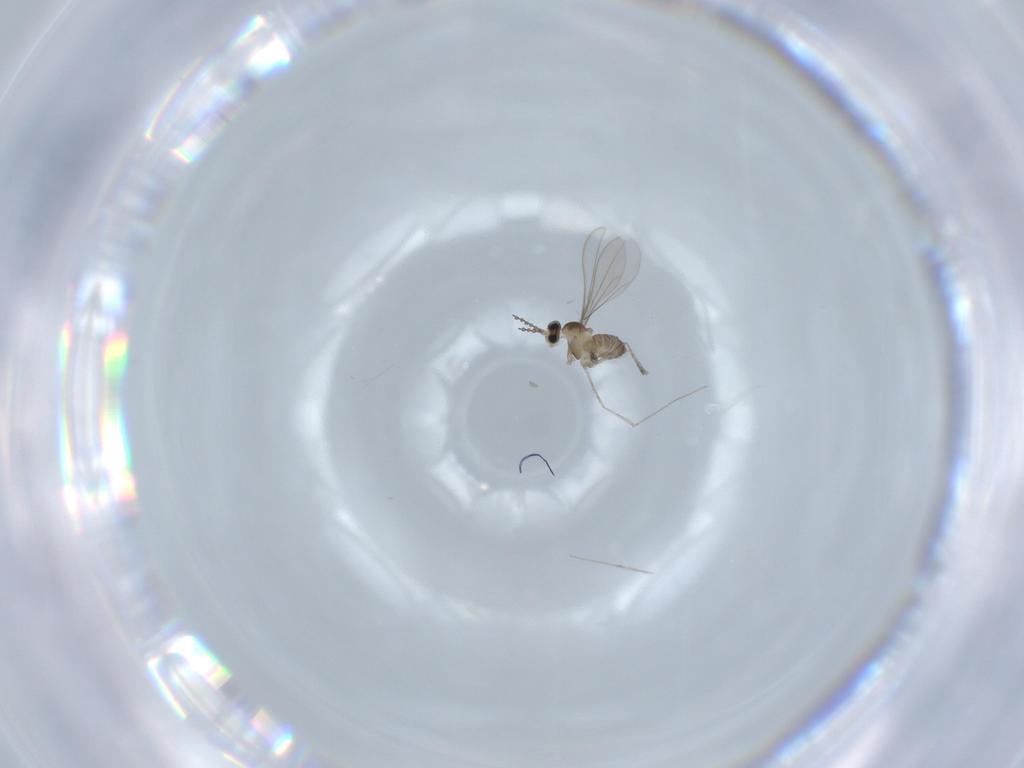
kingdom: Animalia
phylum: Arthropoda
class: Insecta
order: Diptera
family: Cecidomyiidae
